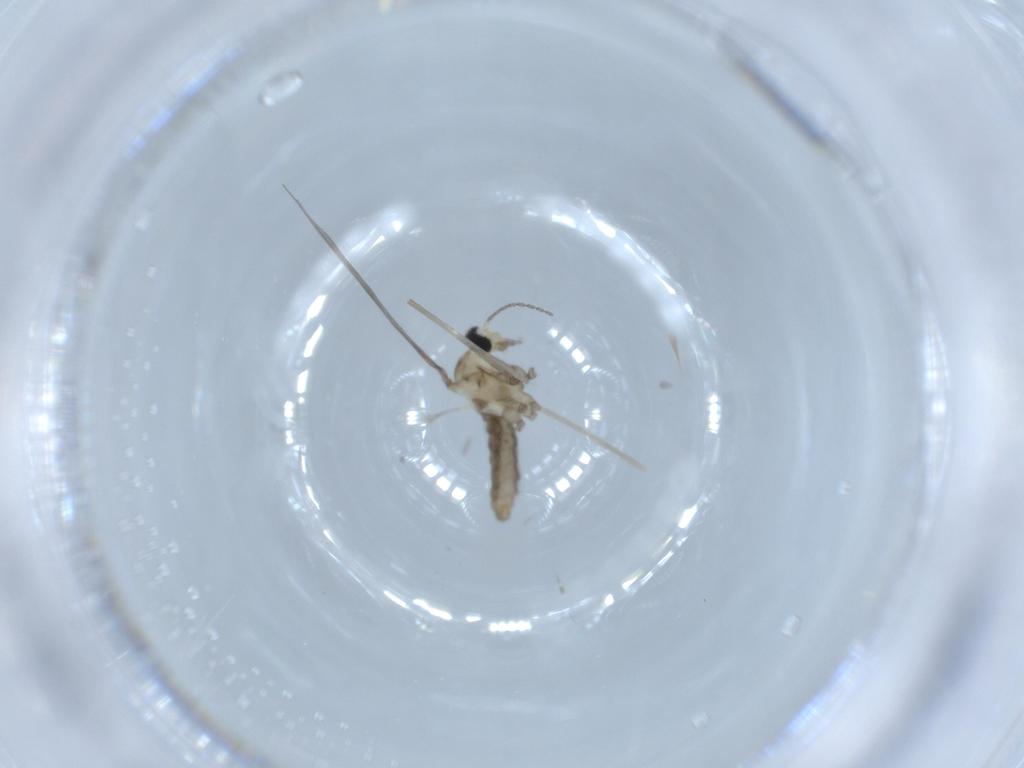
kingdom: Animalia
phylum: Arthropoda
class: Insecta
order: Diptera
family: Cecidomyiidae
